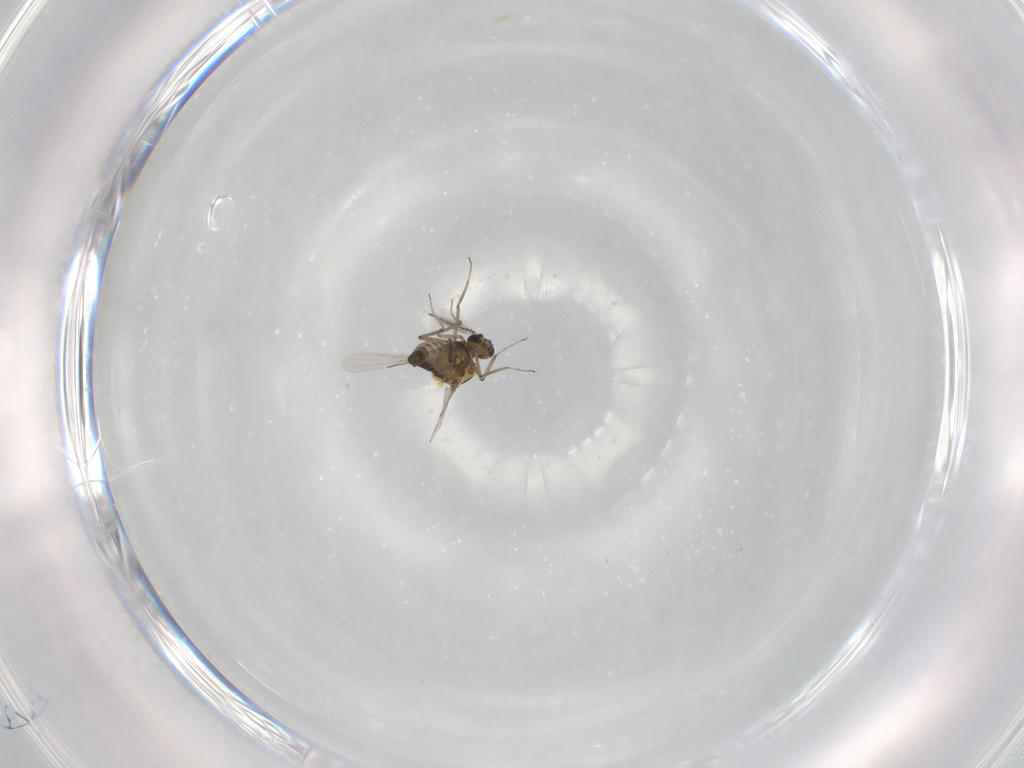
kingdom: Animalia
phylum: Arthropoda
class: Insecta
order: Diptera
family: Ceratopogonidae
